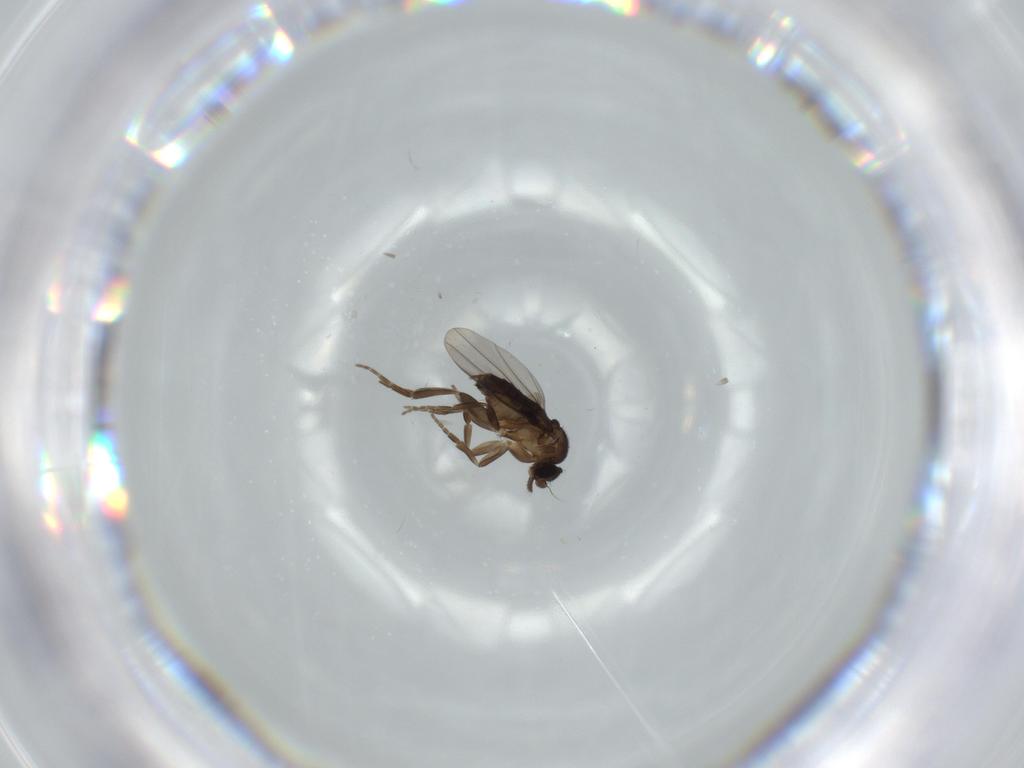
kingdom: Animalia
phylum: Arthropoda
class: Insecta
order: Diptera
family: Phoridae
